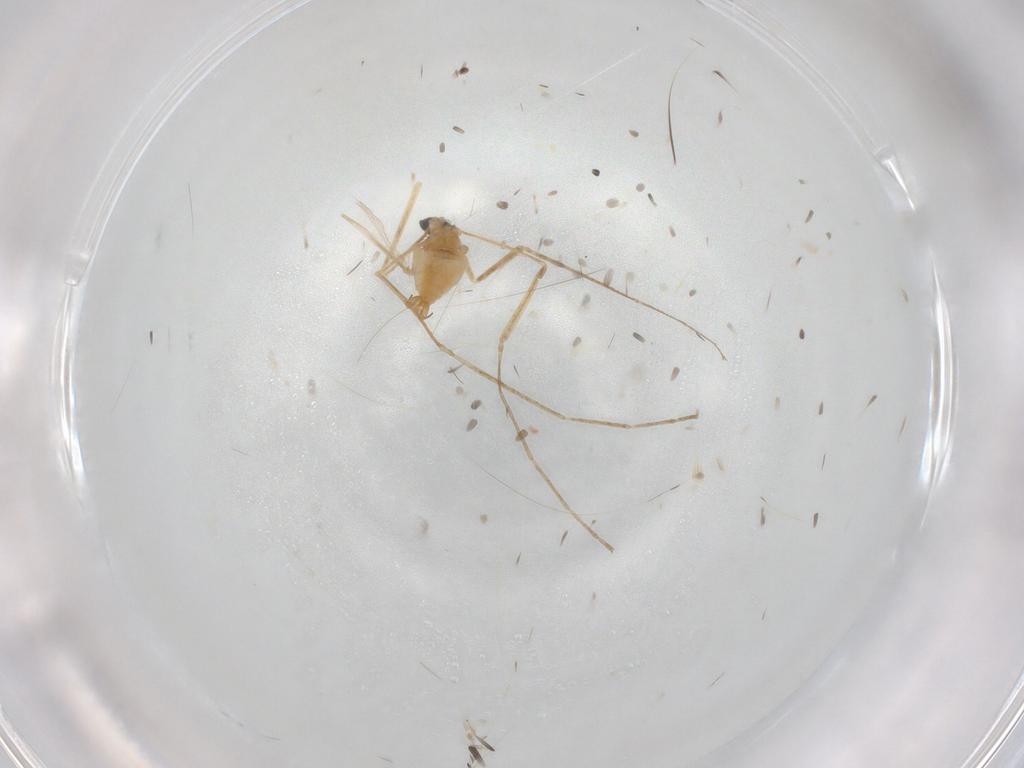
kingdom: Animalia
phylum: Arthropoda
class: Insecta
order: Diptera
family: Cecidomyiidae
